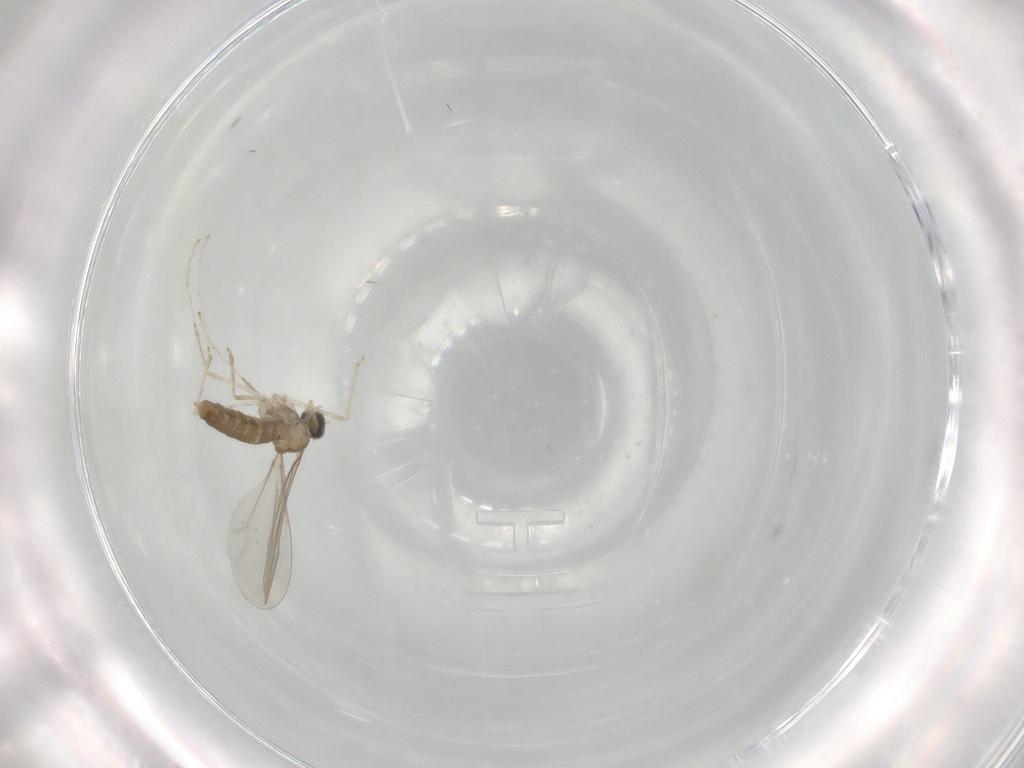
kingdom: Animalia
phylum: Arthropoda
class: Insecta
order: Diptera
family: Cecidomyiidae
